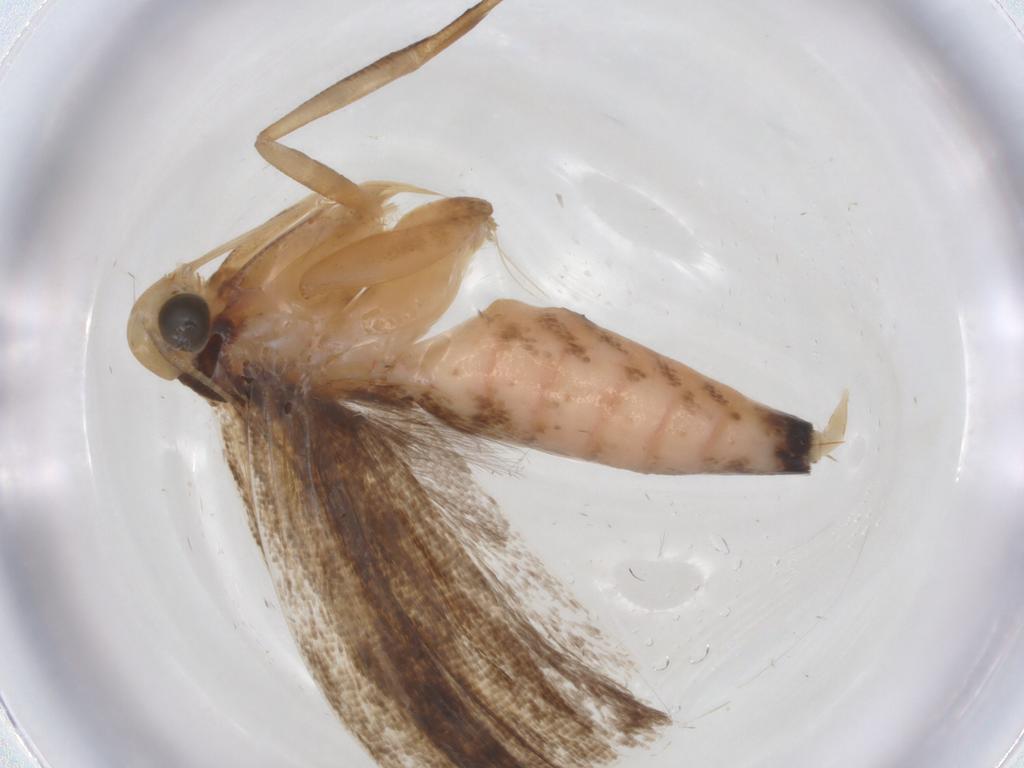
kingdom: Animalia
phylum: Arthropoda
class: Insecta
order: Lepidoptera
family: Gelechiidae
